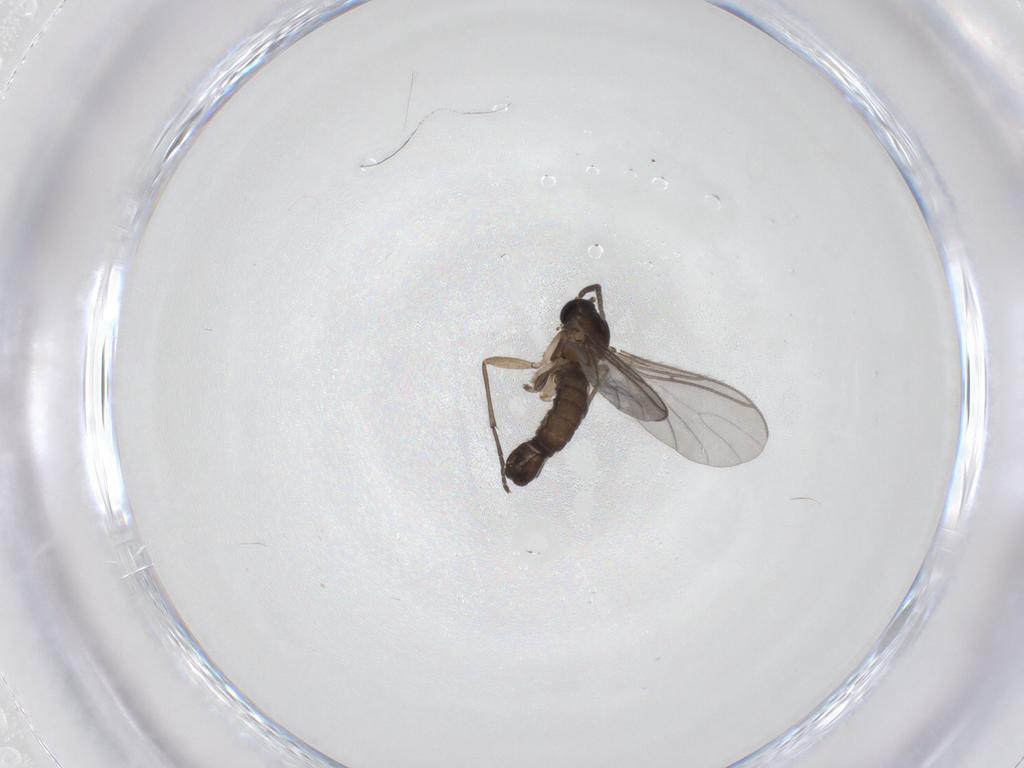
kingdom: Animalia
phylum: Arthropoda
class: Insecta
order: Diptera
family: Sciaridae
